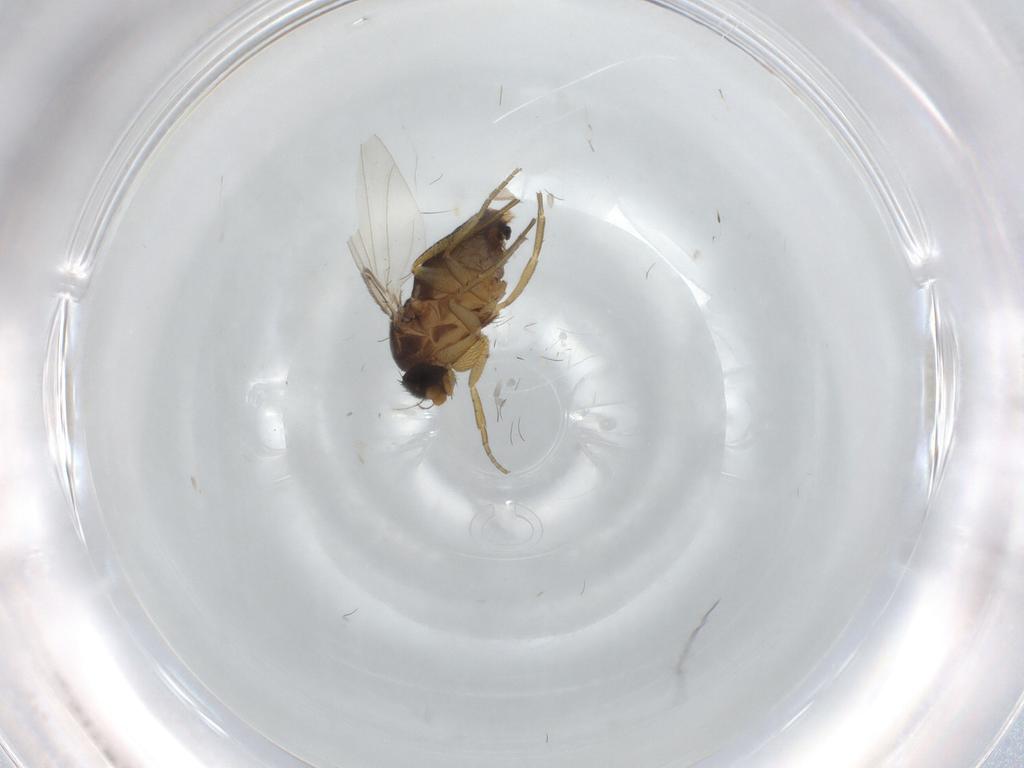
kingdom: Animalia
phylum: Arthropoda
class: Insecta
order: Diptera
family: Phoridae
